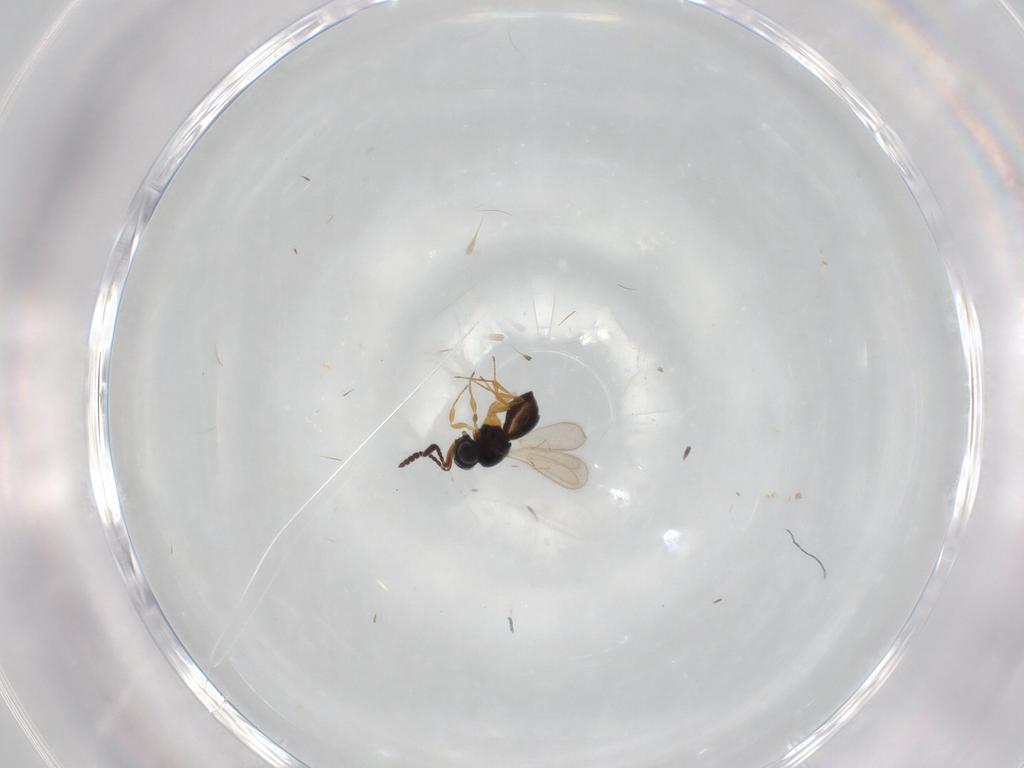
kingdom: Animalia
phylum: Arthropoda
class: Insecta
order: Hymenoptera
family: Scelionidae
